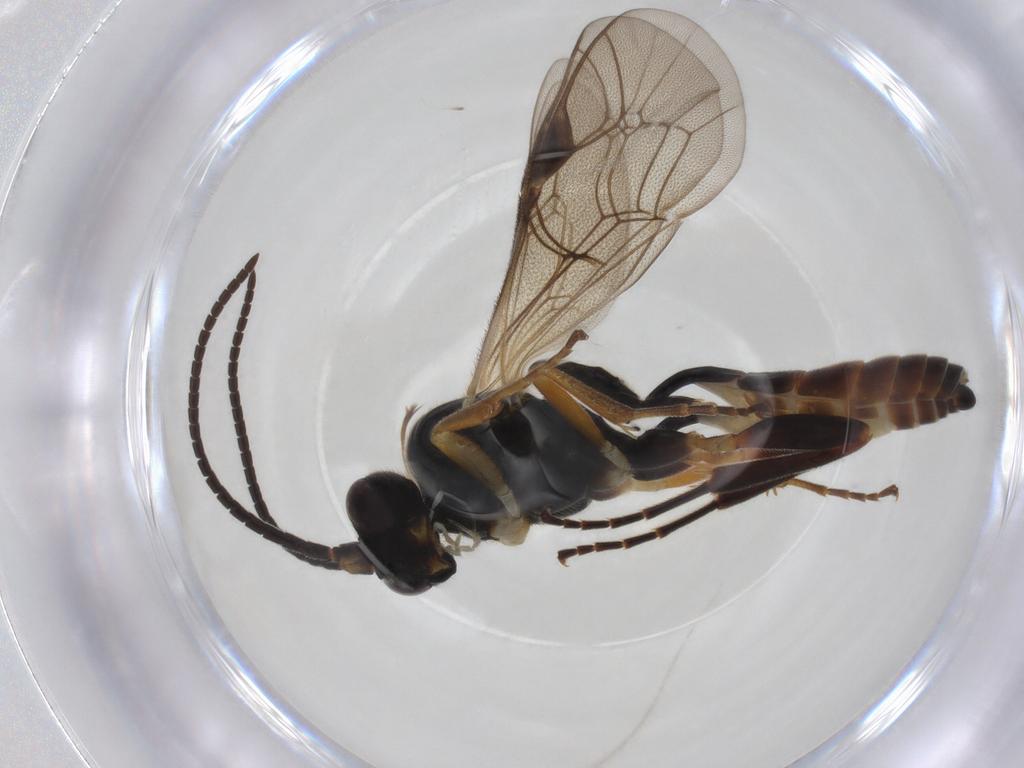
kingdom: Animalia
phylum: Arthropoda
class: Insecta
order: Hymenoptera
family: Ichneumonidae
